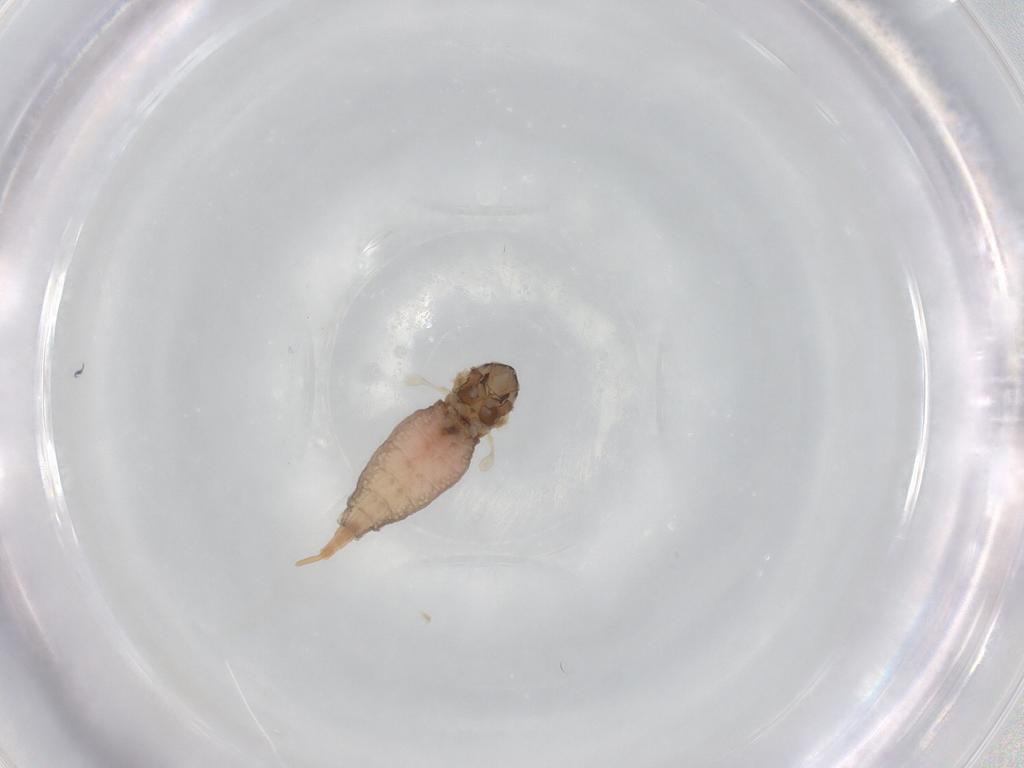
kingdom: Animalia
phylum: Arthropoda
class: Insecta
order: Diptera
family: Cecidomyiidae
